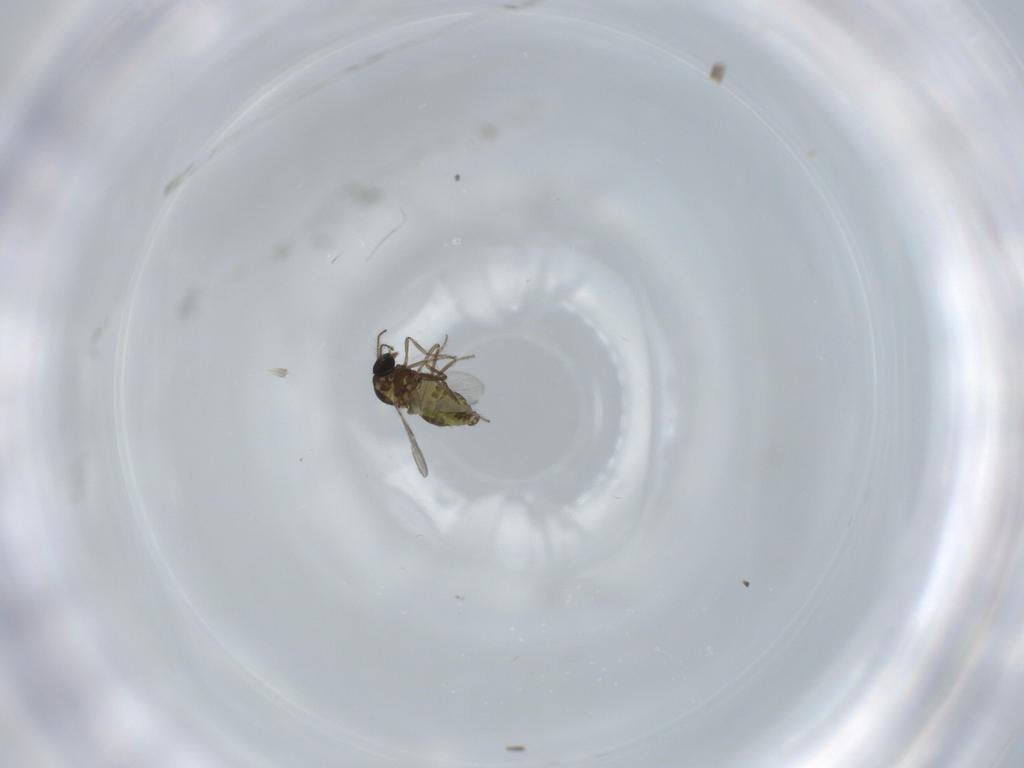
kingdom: Animalia
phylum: Arthropoda
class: Insecta
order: Diptera
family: Ceratopogonidae
